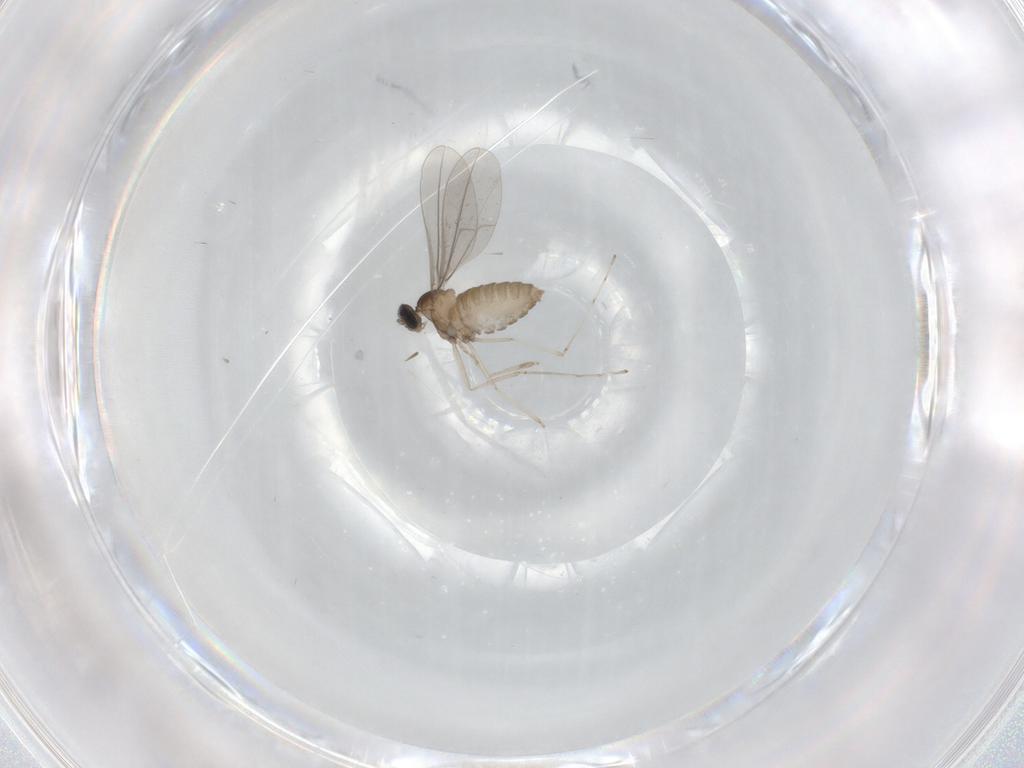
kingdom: Animalia
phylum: Arthropoda
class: Insecta
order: Diptera
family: Cecidomyiidae
